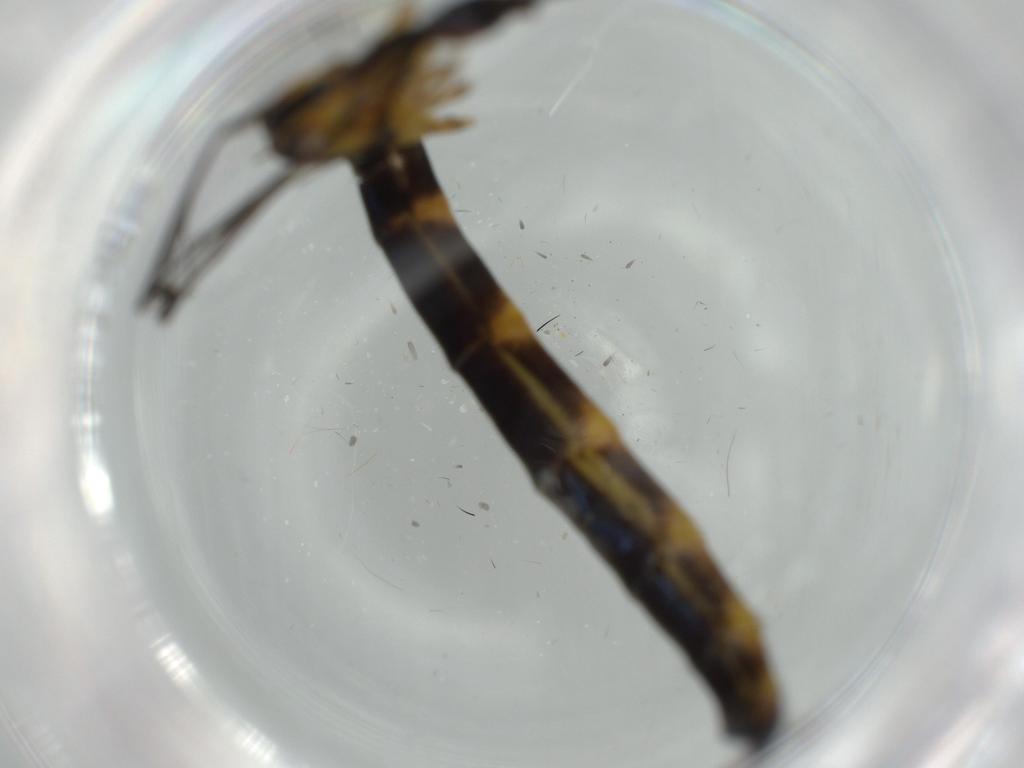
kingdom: Animalia
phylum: Arthropoda
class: Insecta
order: Diptera
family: Limoniidae
